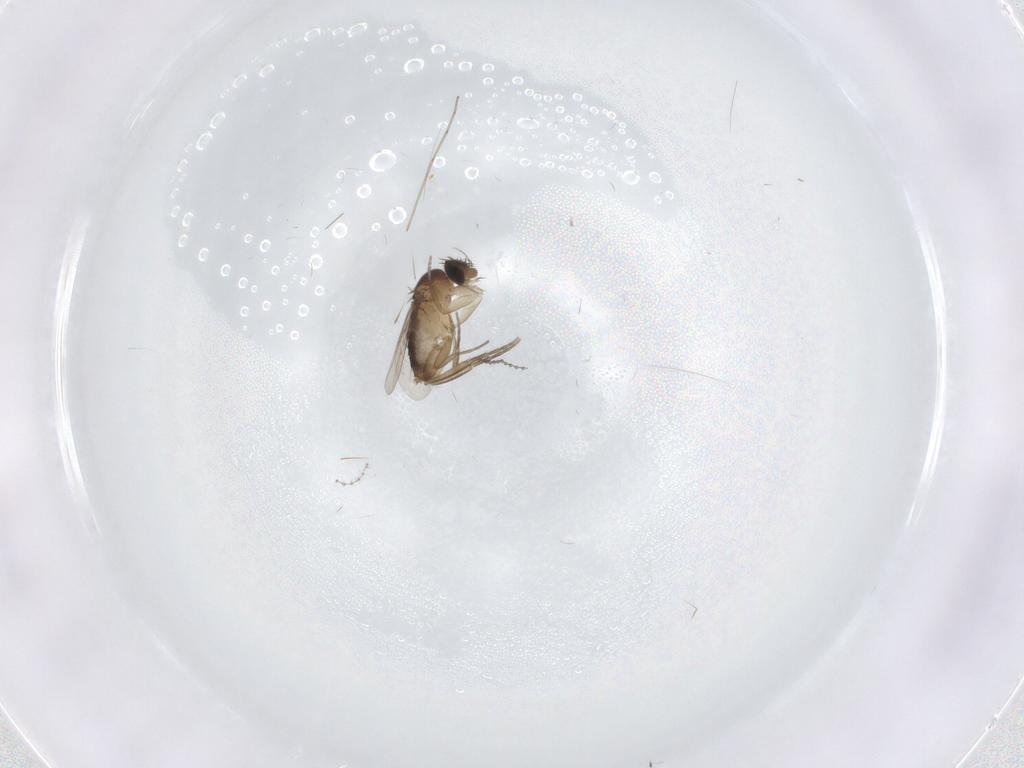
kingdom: Animalia
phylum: Arthropoda
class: Insecta
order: Diptera
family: Phoridae
